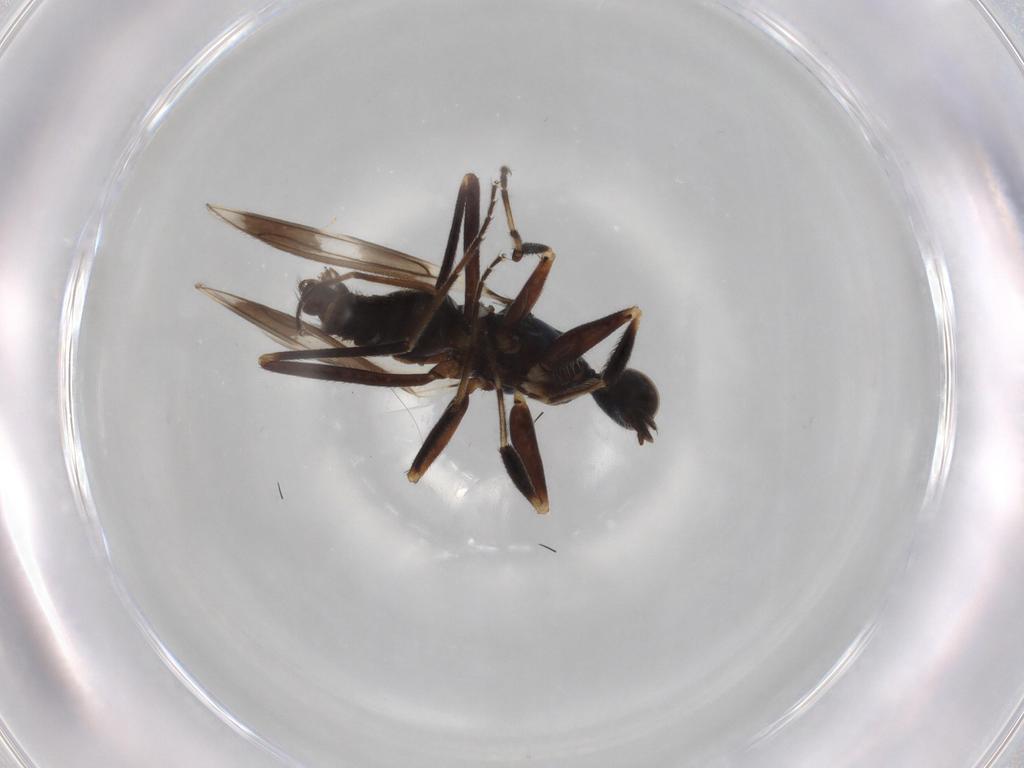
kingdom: Animalia
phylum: Arthropoda
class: Insecta
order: Diptera
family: Hybotidae
